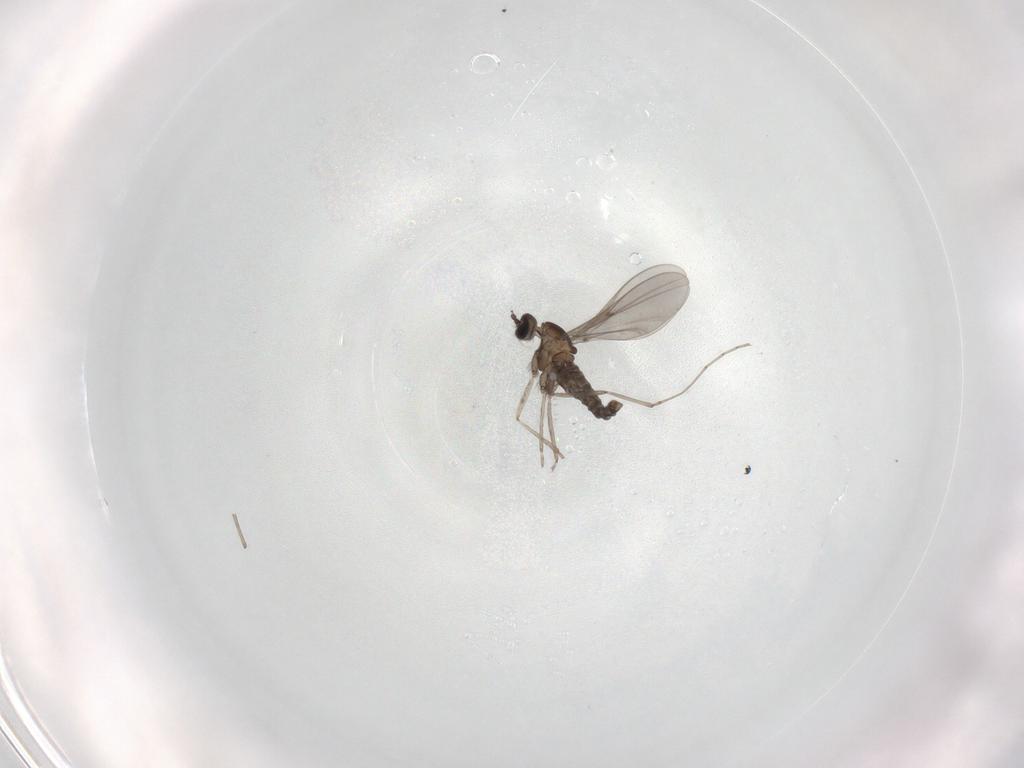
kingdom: Animalia
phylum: Arthropoda
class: Insecta
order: Diptera
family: Cecidomyiidae
